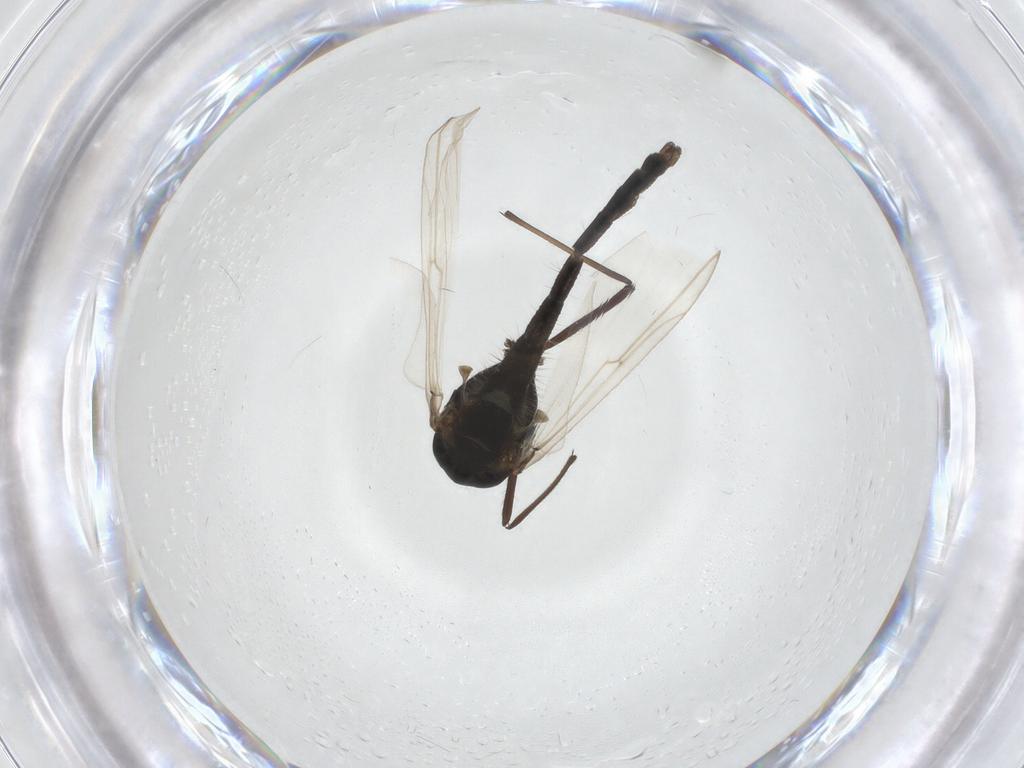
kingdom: Animalia
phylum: Arthropoda
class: Insecta
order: Diptera
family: Chironomidae
